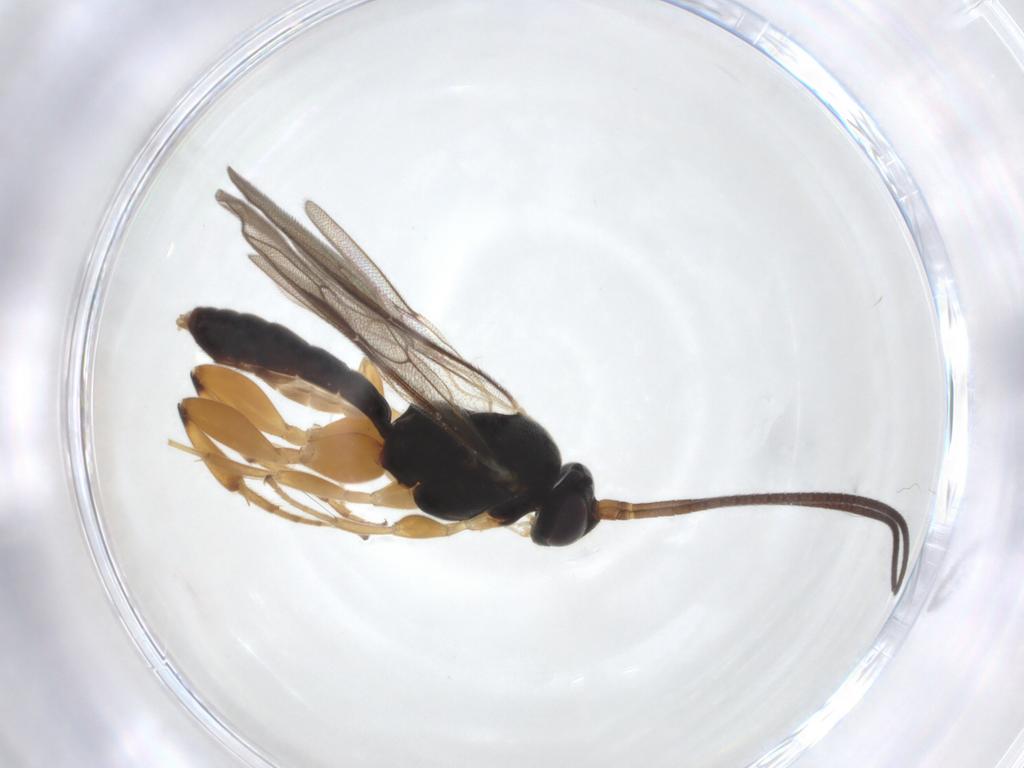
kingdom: Animalia
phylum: Arthropoda
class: Insecta
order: Hymenoptera
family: Ichneumonidae
